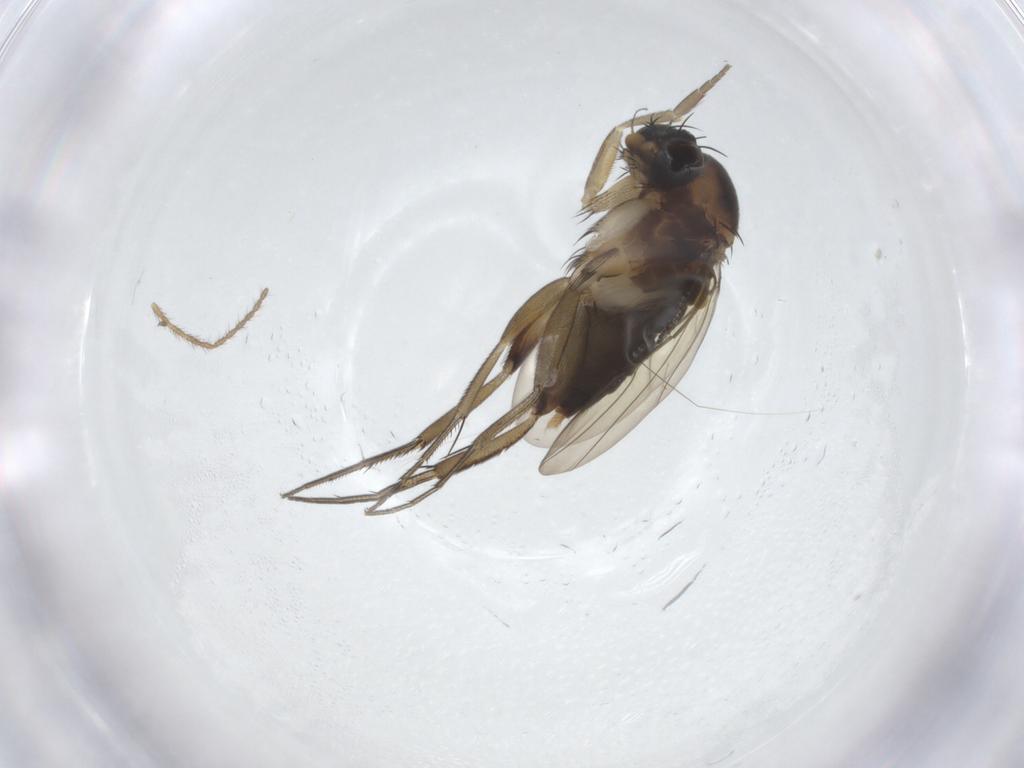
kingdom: Animalia
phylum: Arthropoda
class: Insecta
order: Diptera
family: Phoridae
